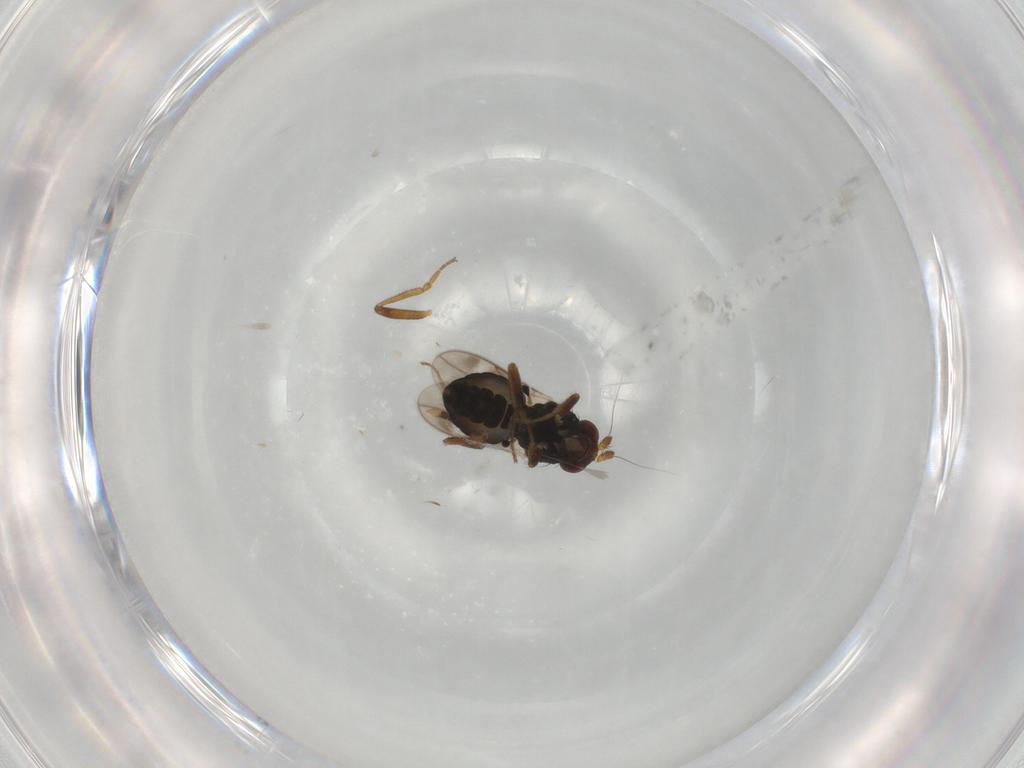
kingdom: Animalia
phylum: Arthropoda
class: Insecta
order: Diptera
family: Sphaeroceridae
